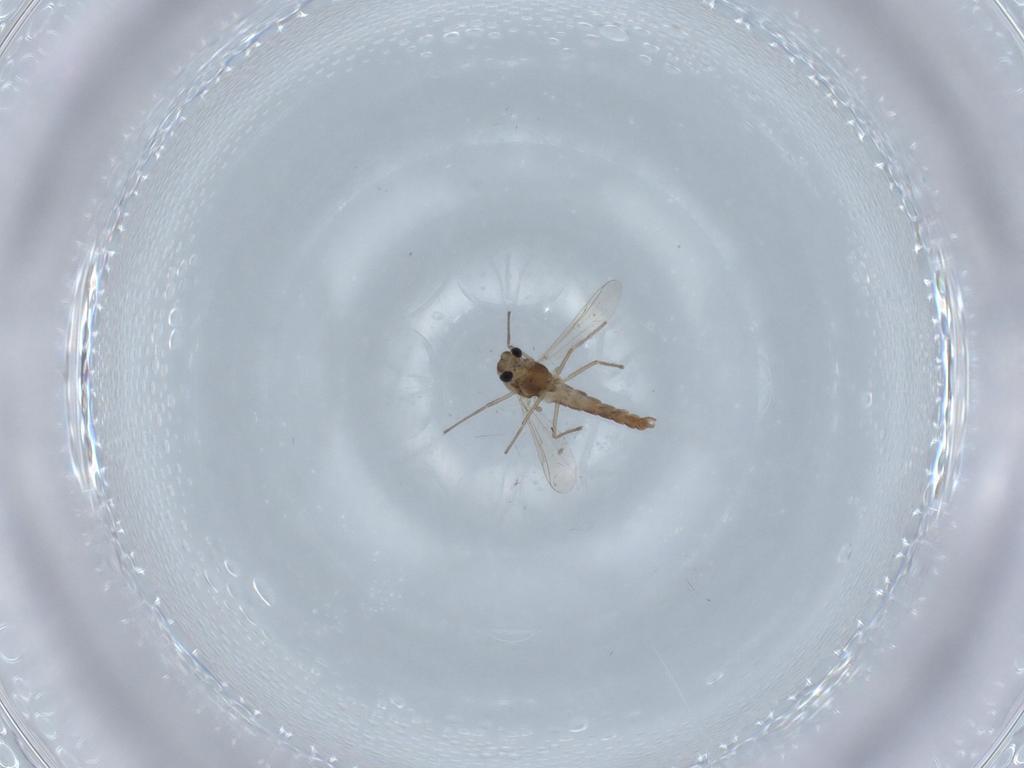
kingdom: Animalia
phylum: Arthropoda
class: Insecta
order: Diptera
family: Chironomidae
